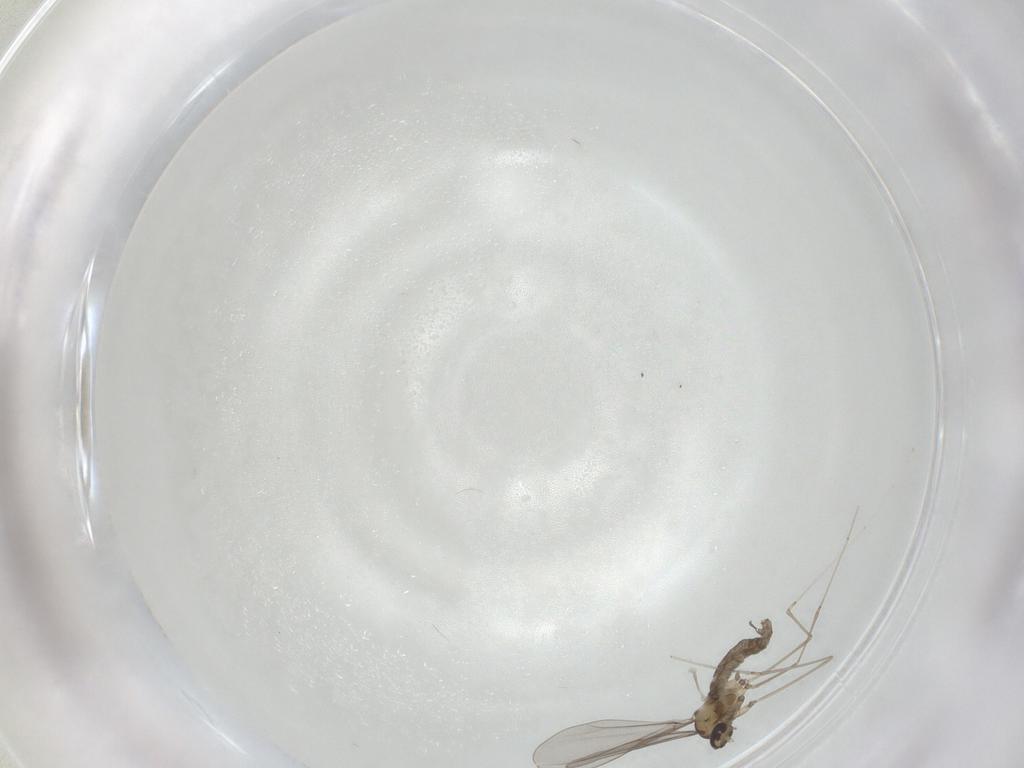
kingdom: Animalia
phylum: Arthropoda
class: Insecta
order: Diptera
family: Cecidomyiidae
